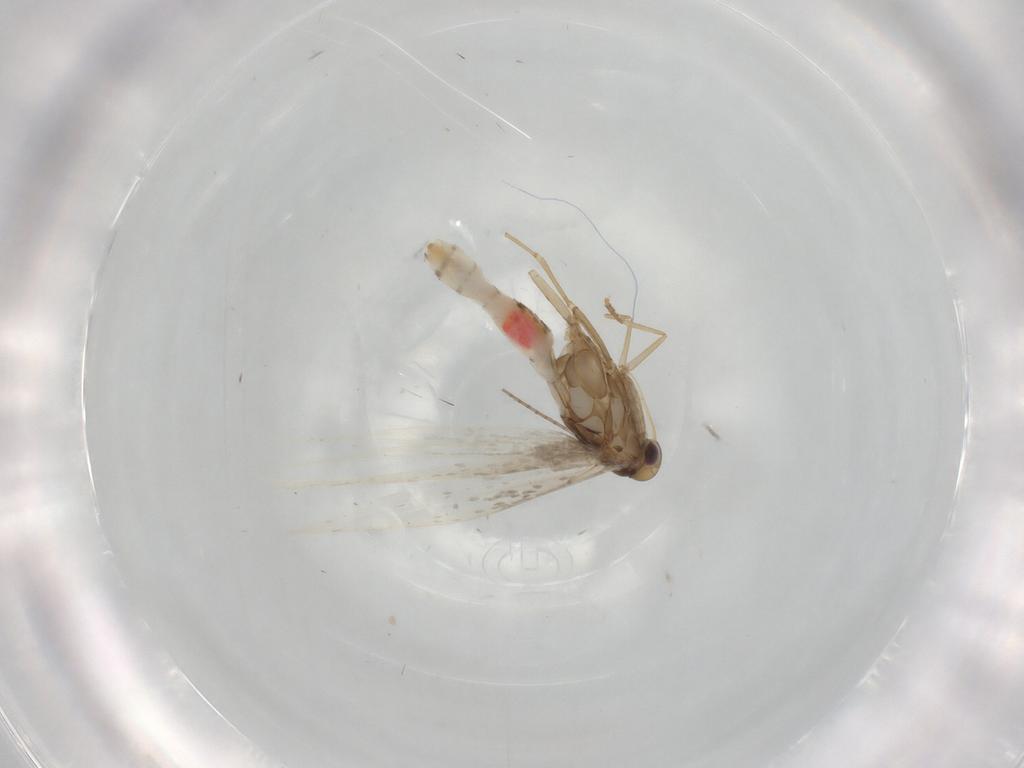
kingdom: Animalia
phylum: Arthropoda
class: Insecta
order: Lepidoptera
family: Gracillariidae
